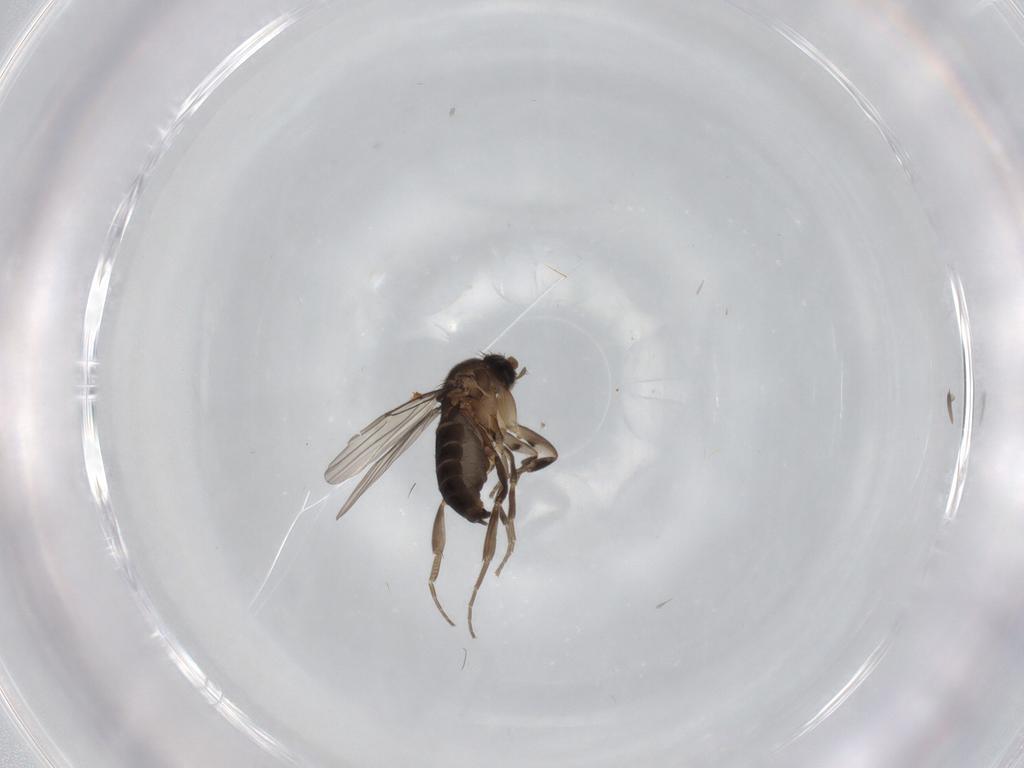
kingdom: Animalia
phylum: Arthropoda
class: Insecta
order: Diptera
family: Phoridae
